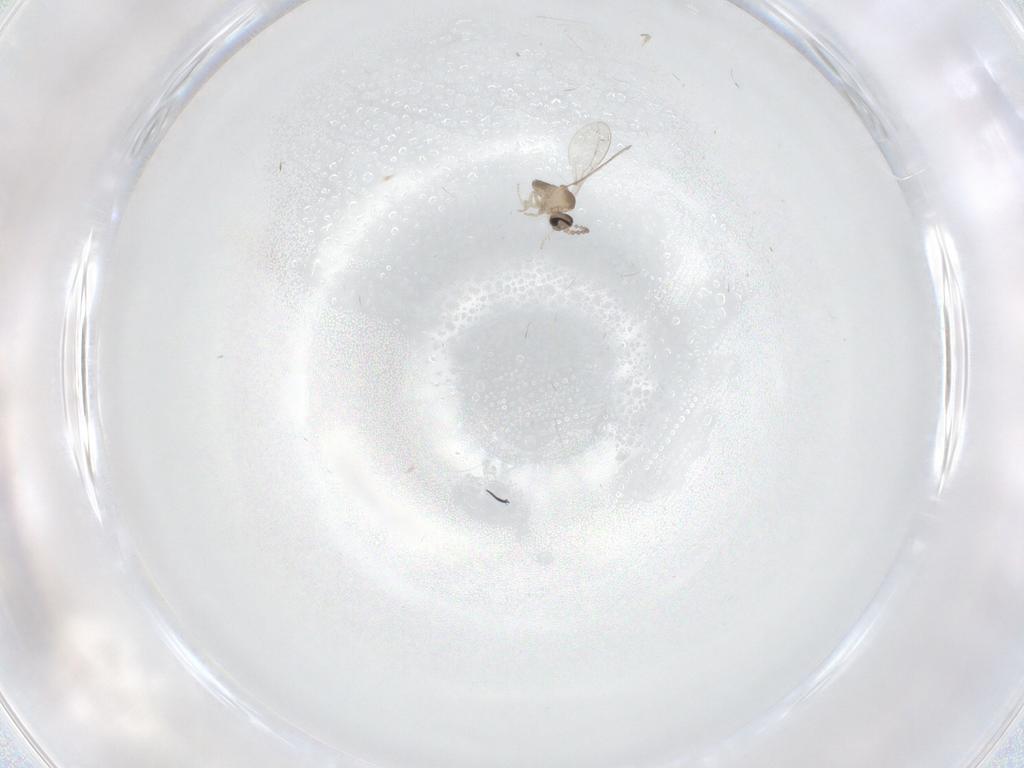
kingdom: Animalia
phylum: Arthropoda
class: Insecta
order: Diptera
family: Cecidomyiidae
